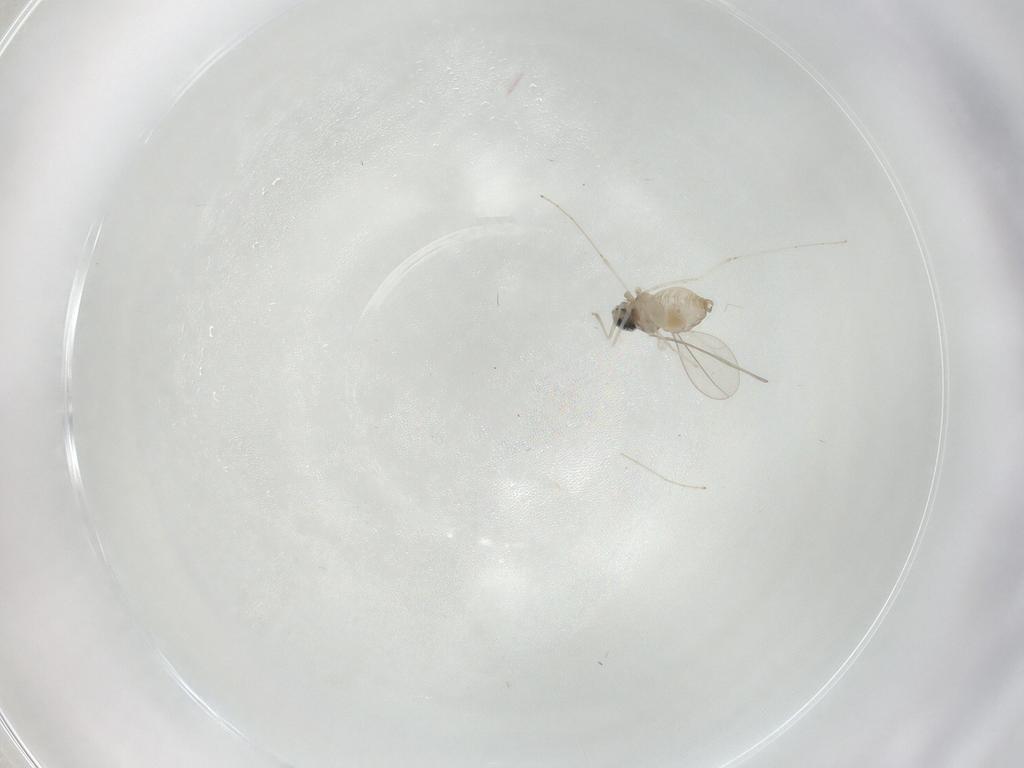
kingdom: Animalia
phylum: Arthropoda
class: Insecta
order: Diptera
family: Cecidomyiidae
